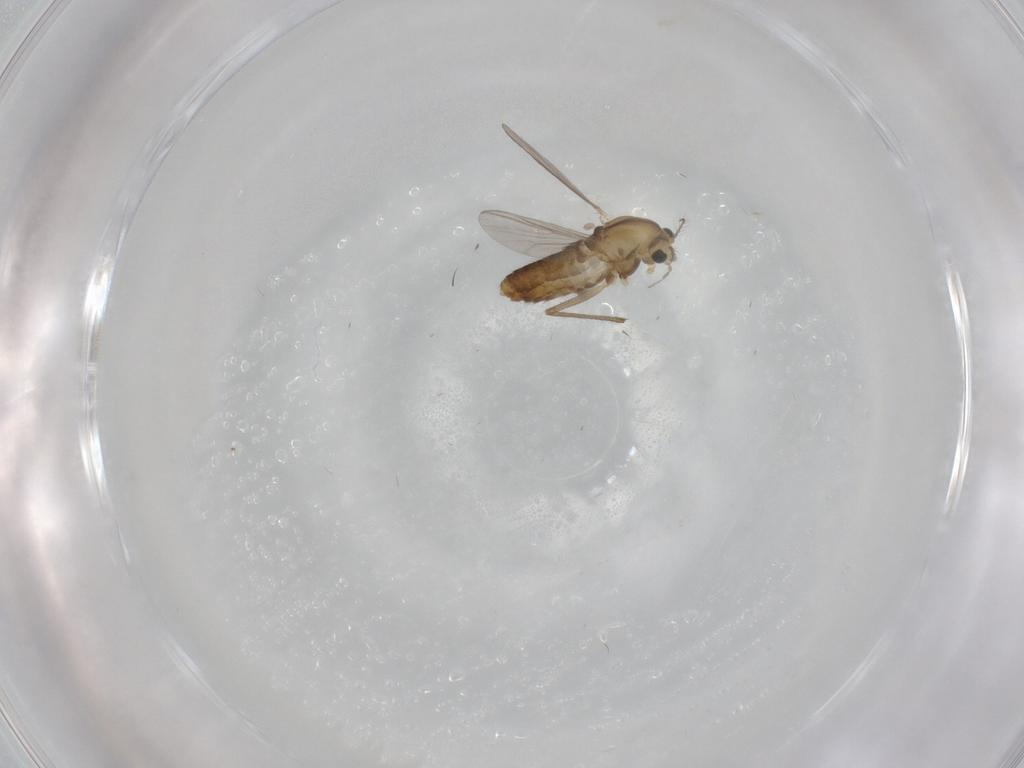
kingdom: Animalia
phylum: Arthropoda
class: Insecta
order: Diptera
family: Chironomidae
